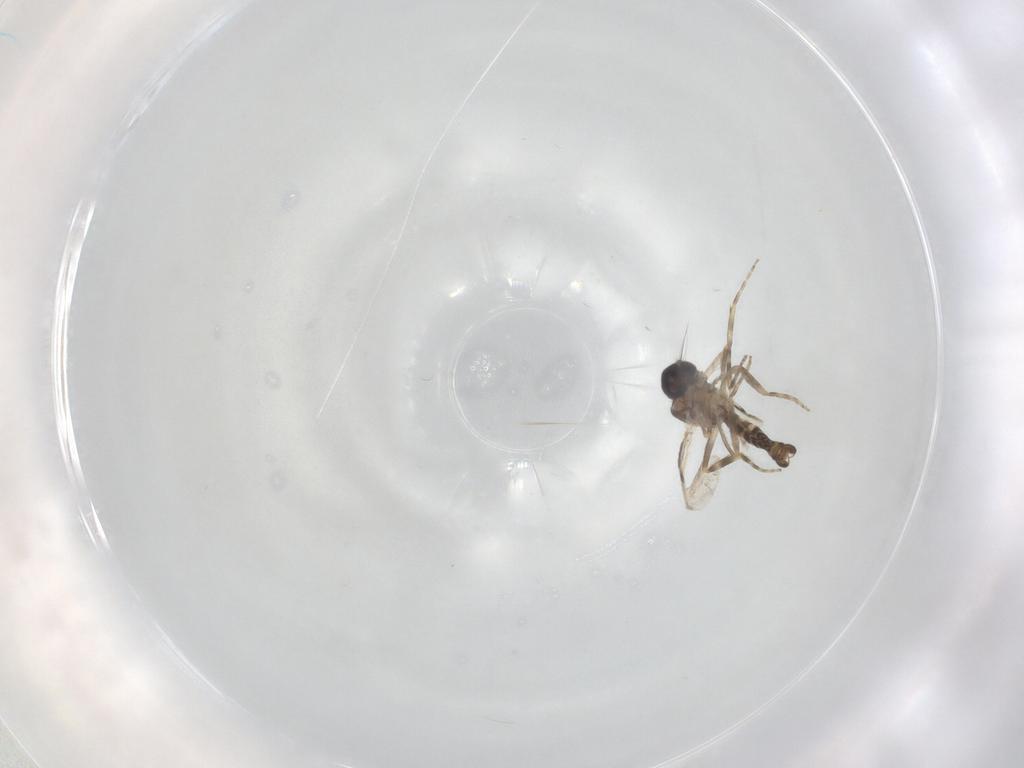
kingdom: Animalia
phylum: Arthropoda
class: Insecta
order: Diptera
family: Ceratopogonidae
